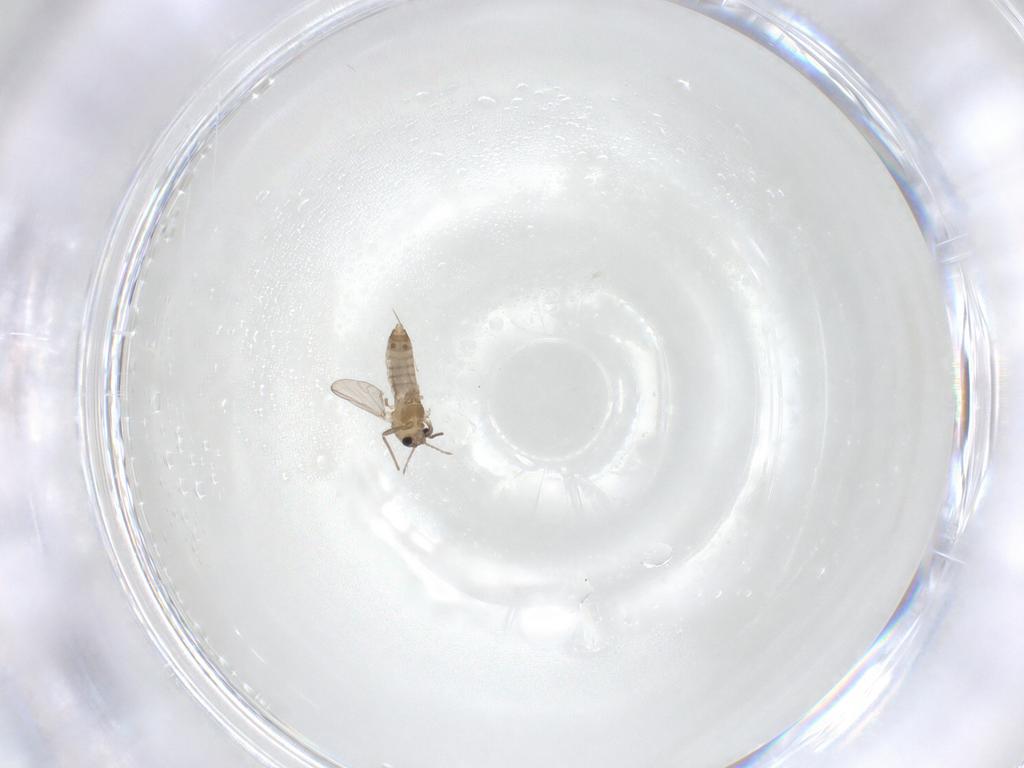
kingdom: Animalia
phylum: Arthropoda
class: Insecta
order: Diptera
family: Chironomidae
